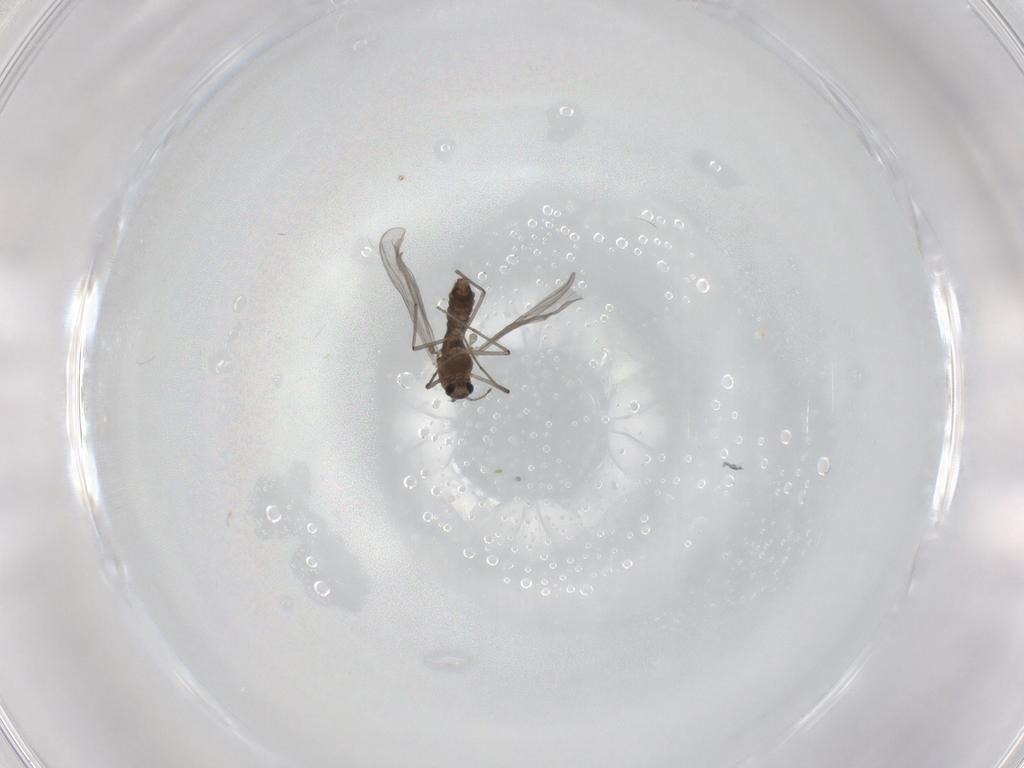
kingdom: Animalia
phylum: Arthropoda
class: Insecta
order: Diptera
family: Chironomidae
